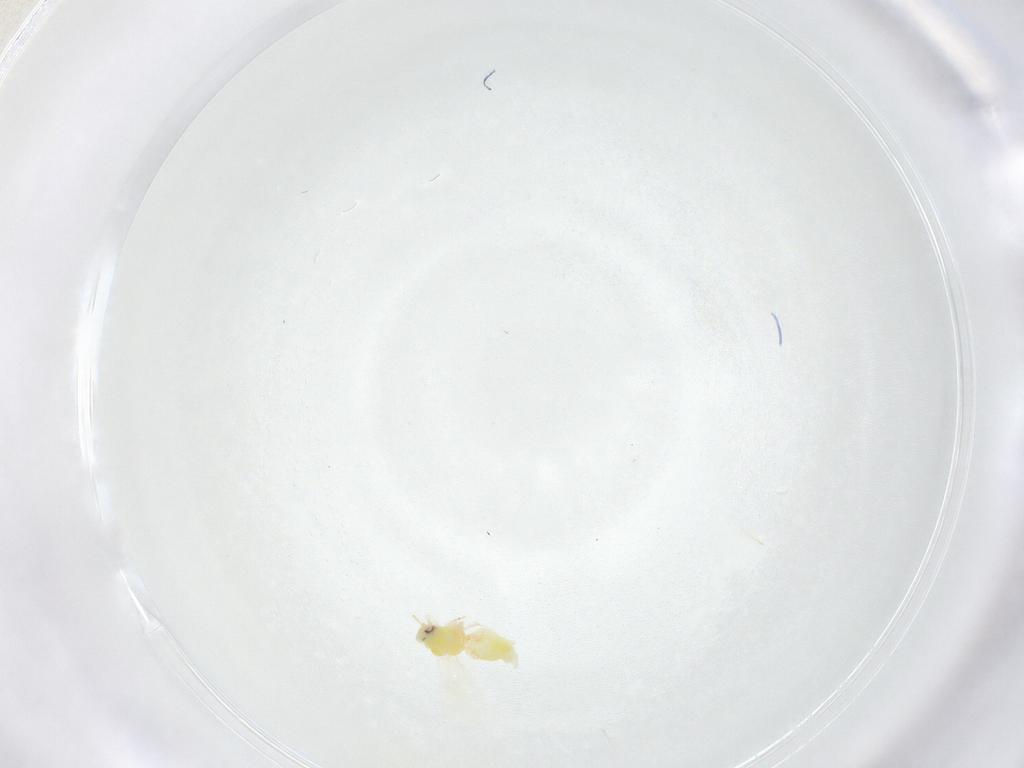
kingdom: Animalia
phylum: Arthropoda
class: Insecta
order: Hemiptera
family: Aleyrodidae
